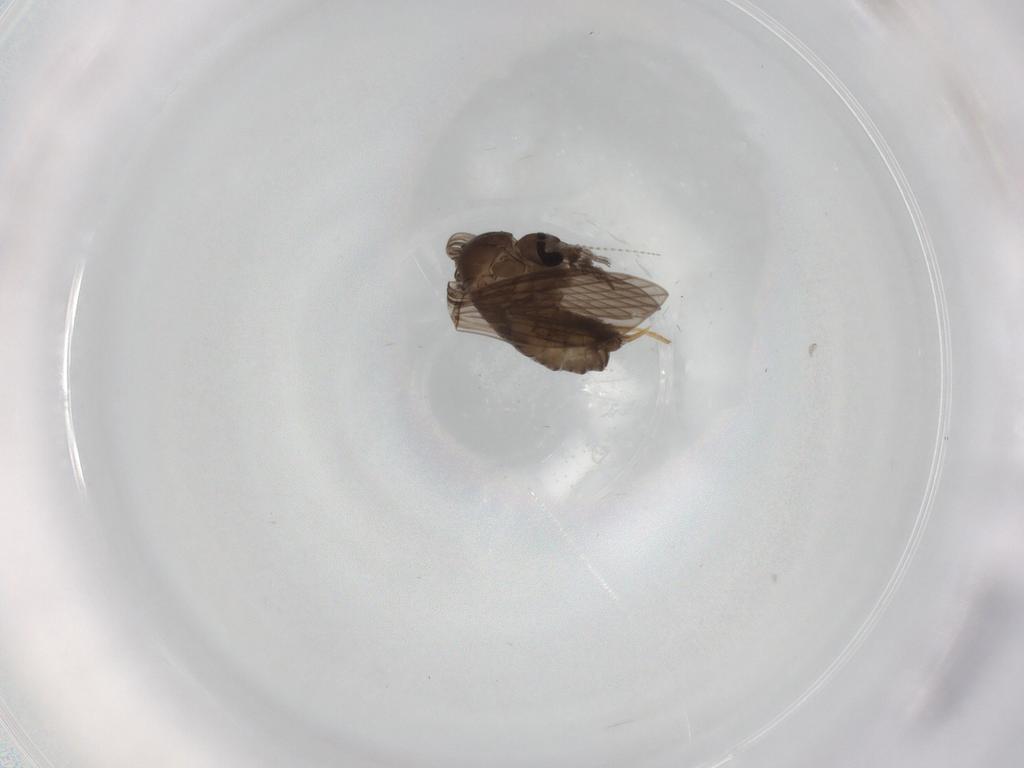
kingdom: Animalia
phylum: Arthropoda
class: Insecta
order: Diptera
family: Psychodidae
